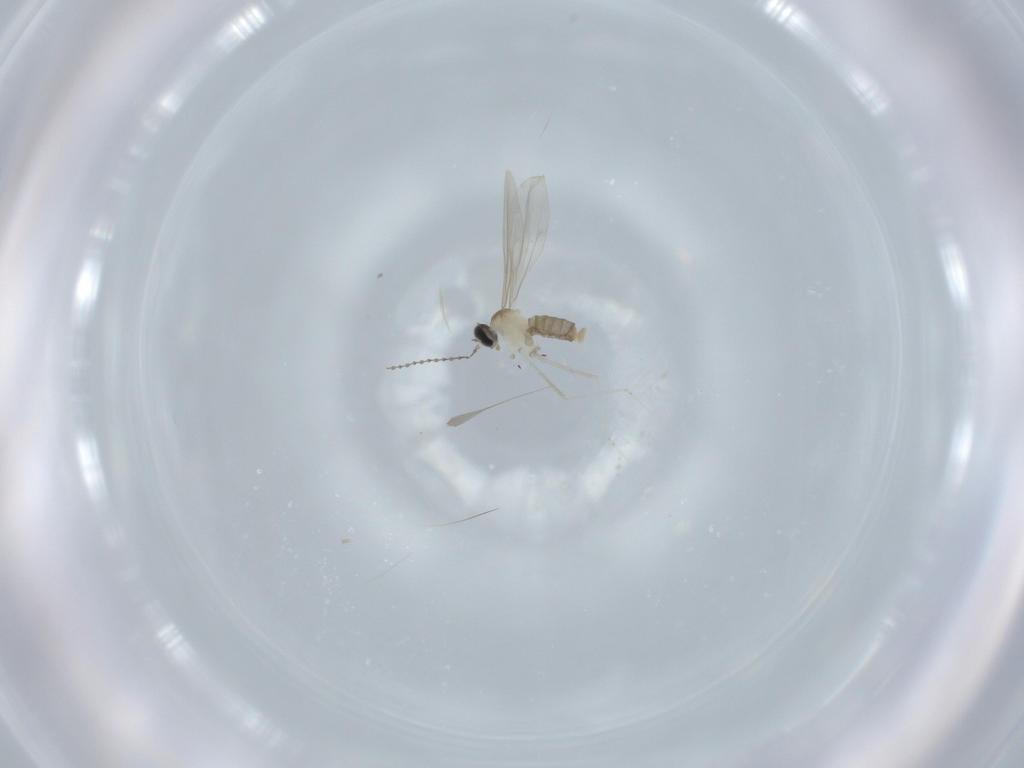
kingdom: Animalia
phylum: Arthropoda
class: Insecta
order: Diptera
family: Cecidomyiidae
